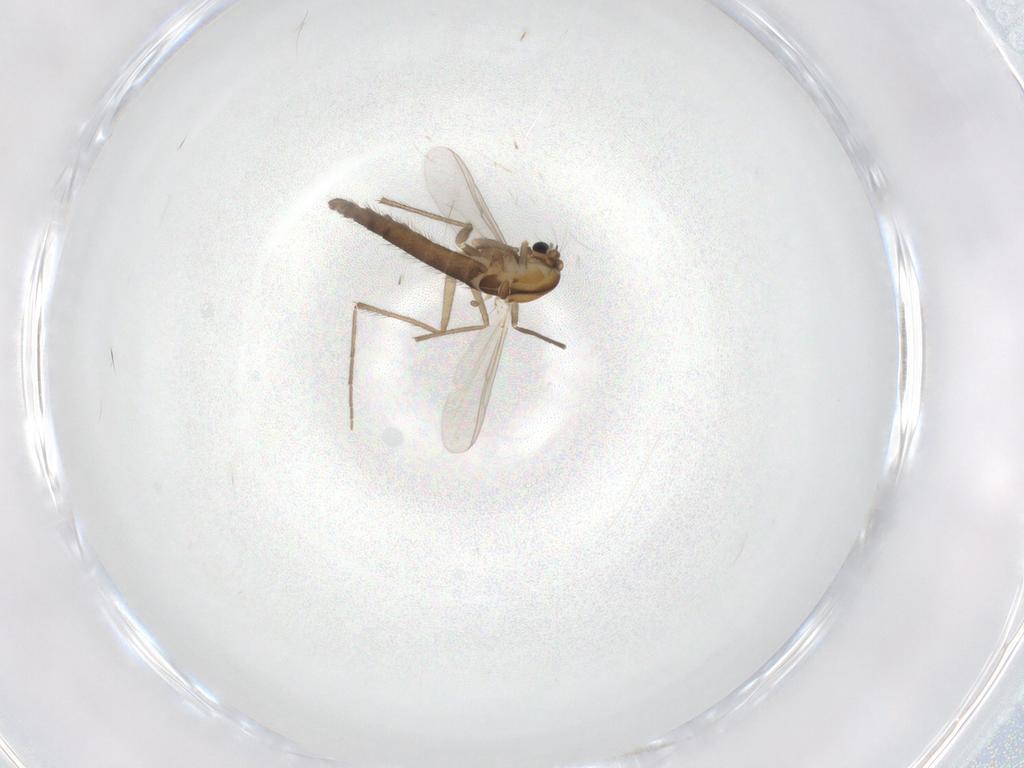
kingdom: Animalia
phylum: Arthropoda
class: Insecta
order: Diptera
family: Chironomidae
